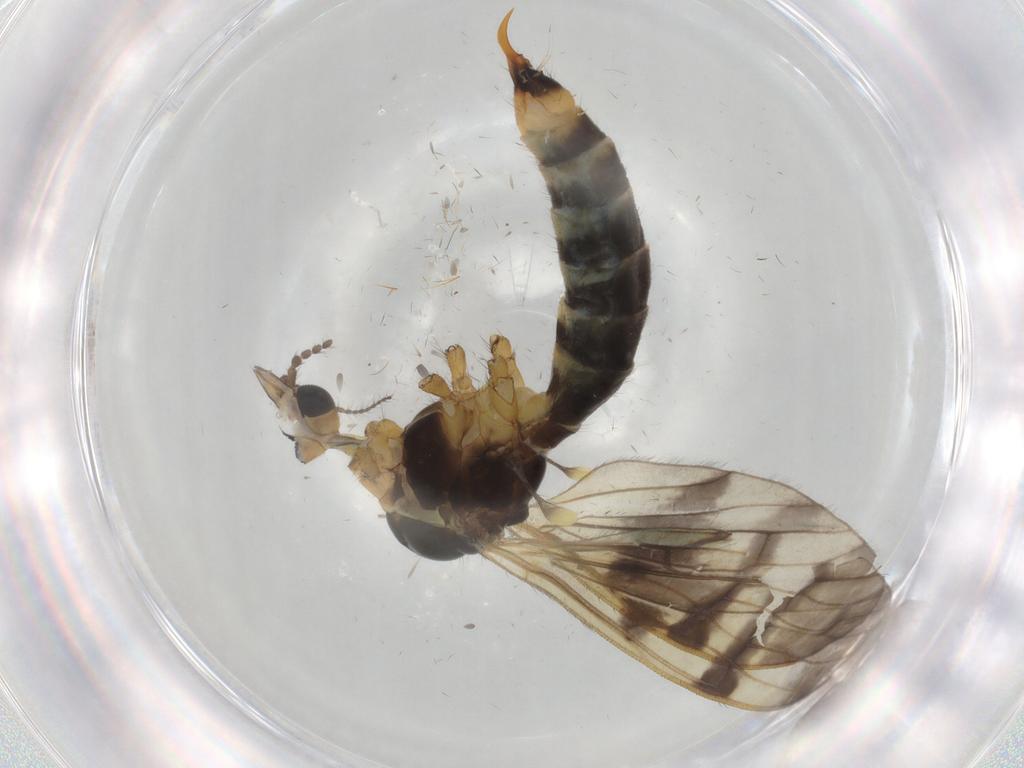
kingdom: Animalia
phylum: Arthropoda
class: Insecta
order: Diptera
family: Limoniidae
